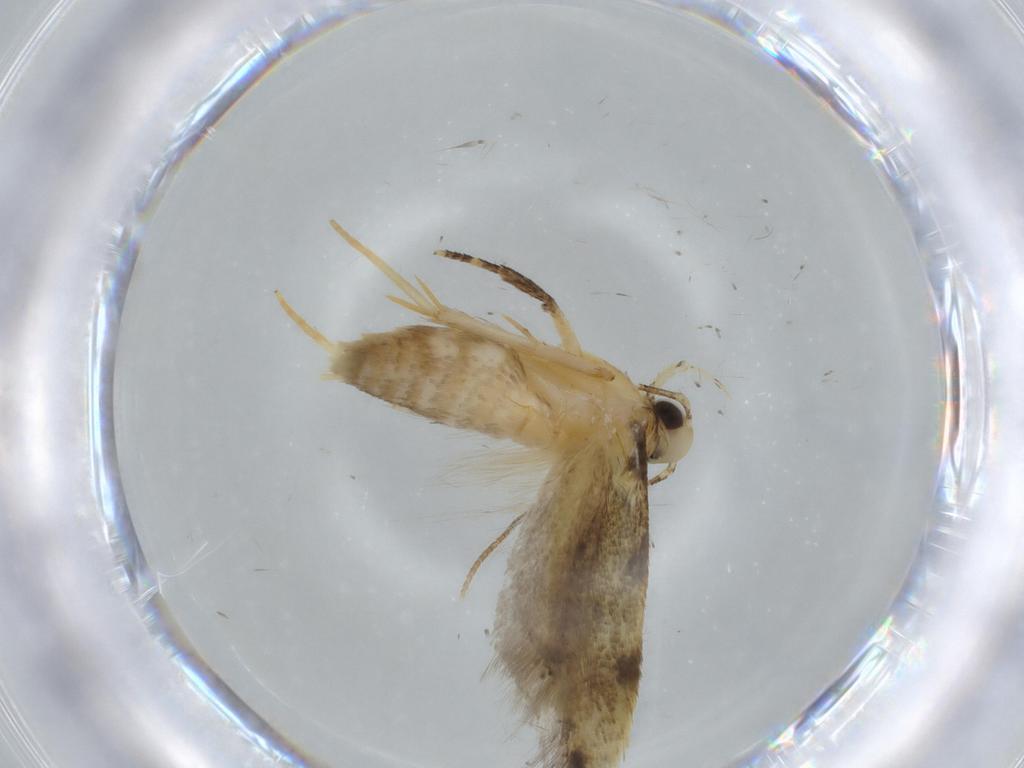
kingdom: Animalia
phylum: Arthropoda
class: Insecta
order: Lepidoptera
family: Autostichidae
